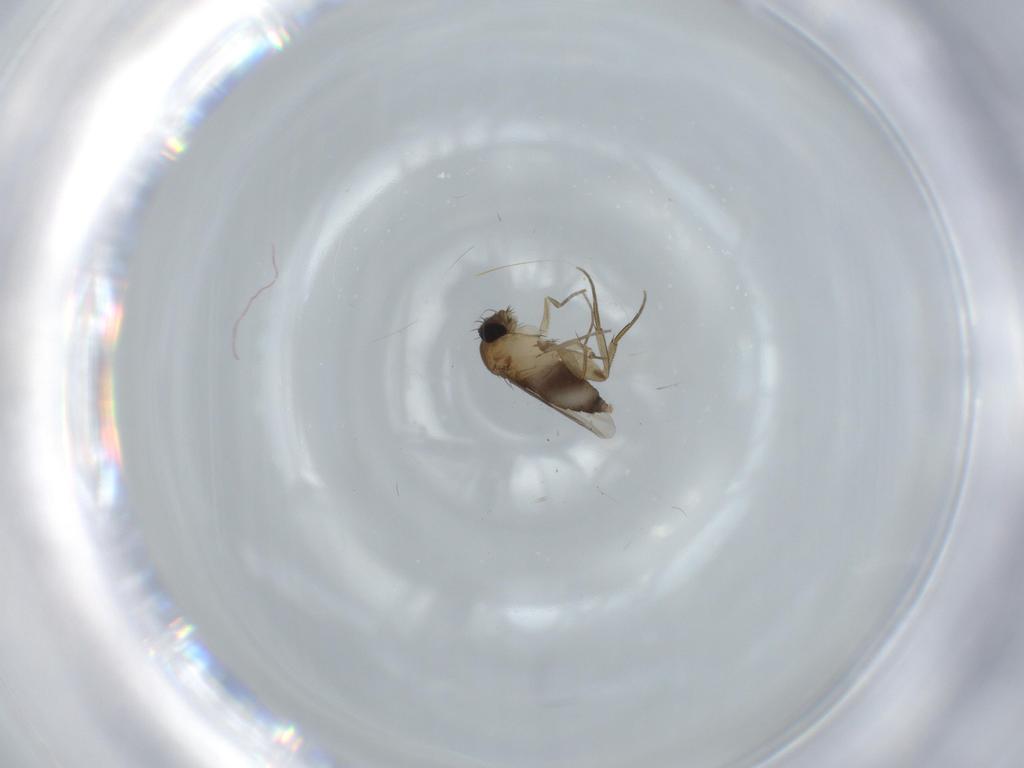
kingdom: Animalia
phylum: Arthropoda
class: Insecta
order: Diptera
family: Phoridae
